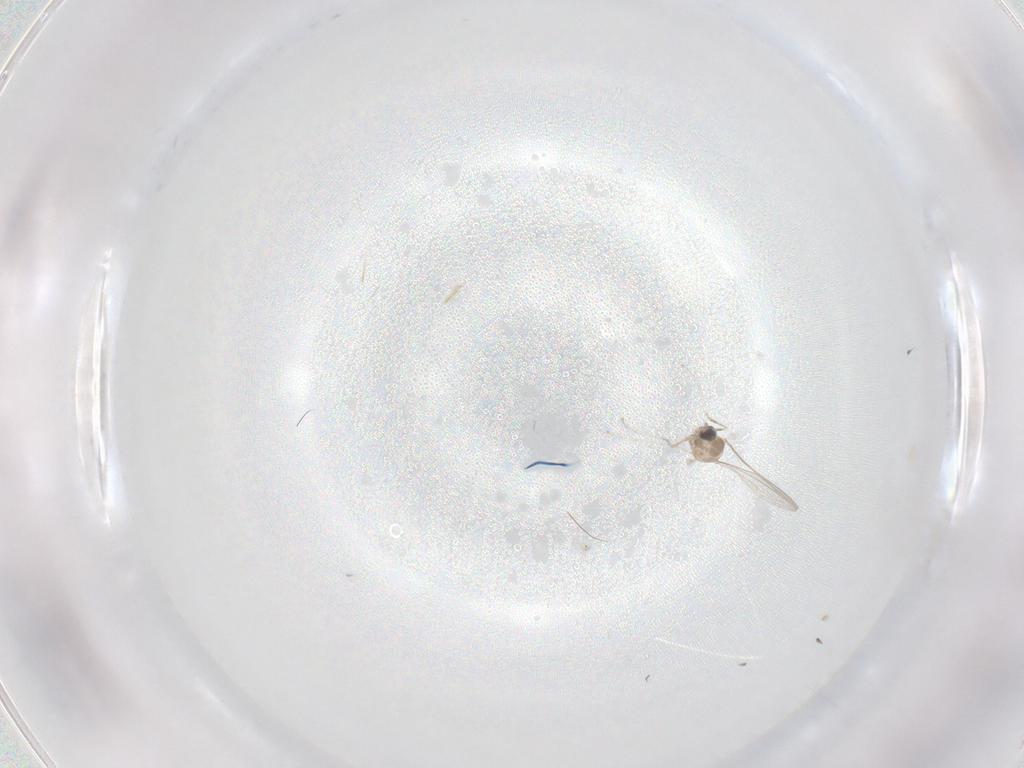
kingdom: Animalia
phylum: Arthropoda
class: Insecta
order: Diptera
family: Cecidomyiidae
